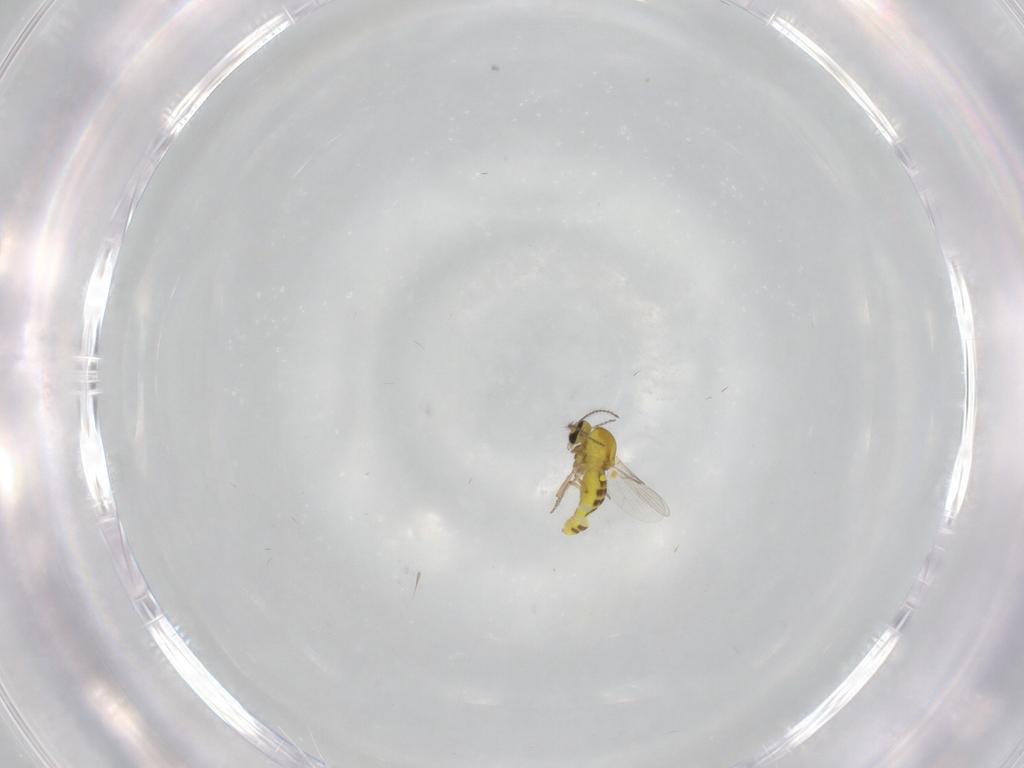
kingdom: Animalia
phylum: Arthropoda
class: Insecta
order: Diptera
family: Ceratopogonidae
